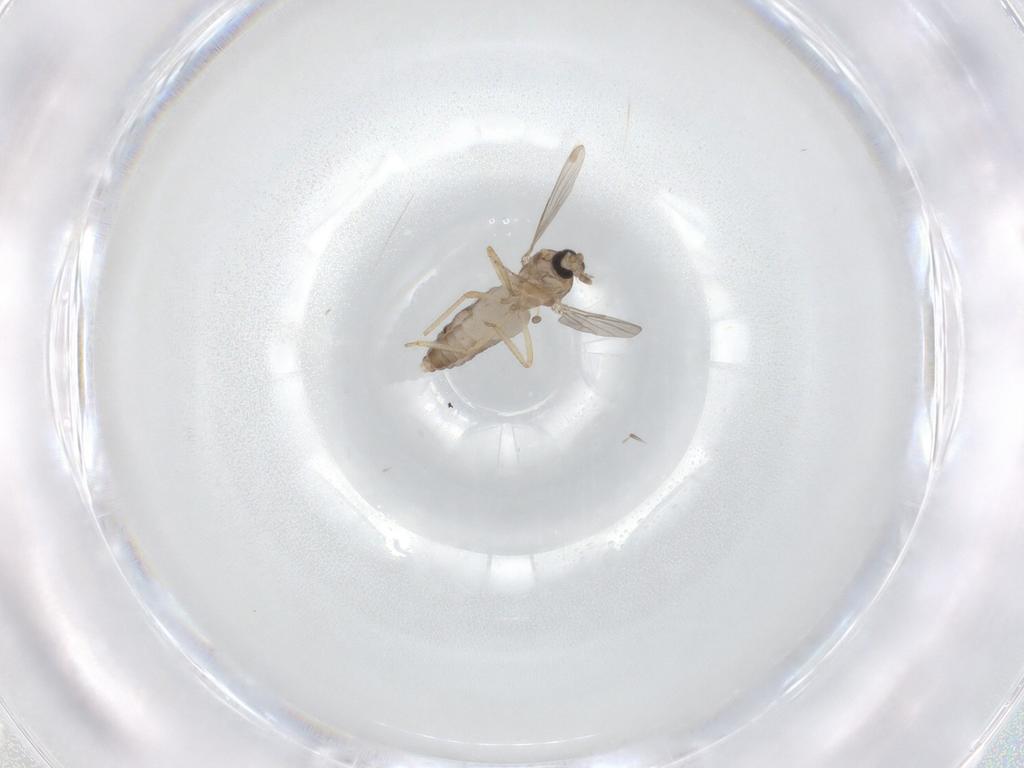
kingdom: Animalia
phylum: Arthropoda
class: Insecta
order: Diptera
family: Ceratopogonidae
